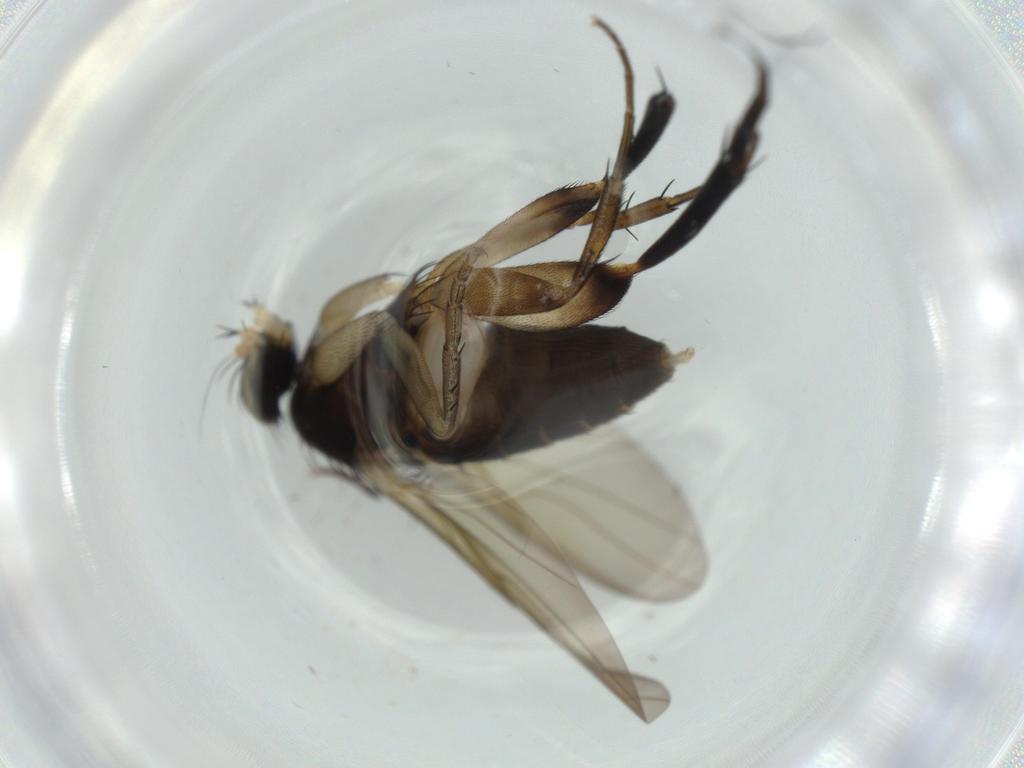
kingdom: Animalia
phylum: Arthropoda
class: Insecta
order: Diptera
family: Phoridae
